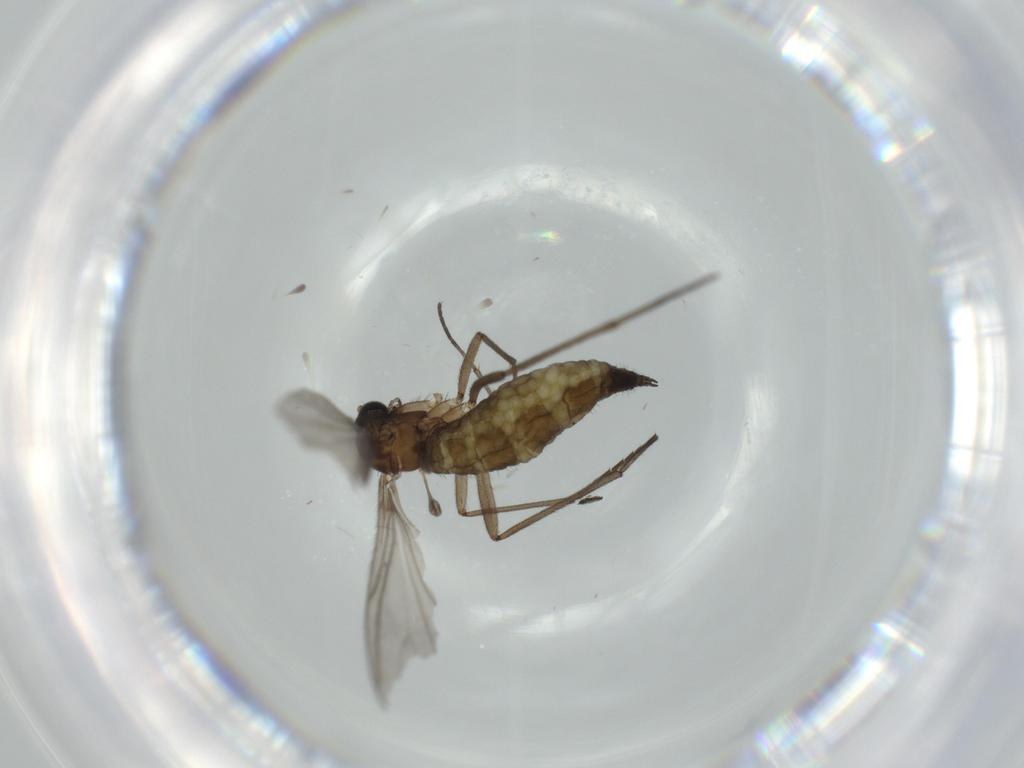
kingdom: Animalia
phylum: Arthropoda
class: Insecta
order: Diptera
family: Sciaridae
